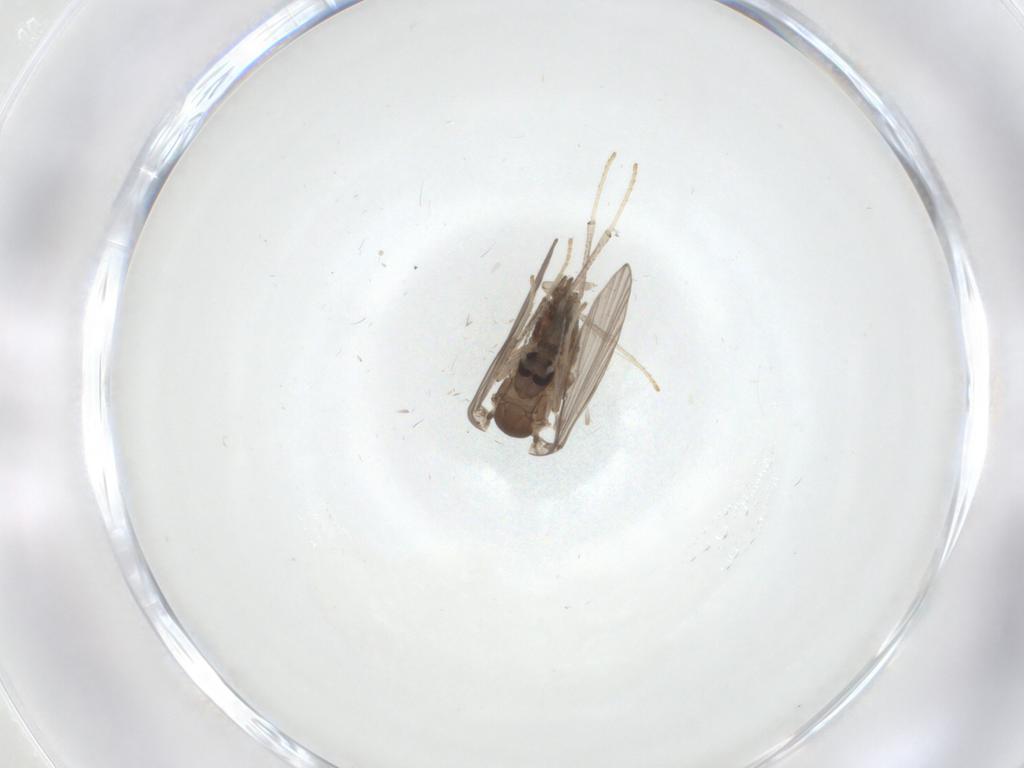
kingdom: Animalia
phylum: Arthropoda
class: Insecta
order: Diptera
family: Psychodidae
